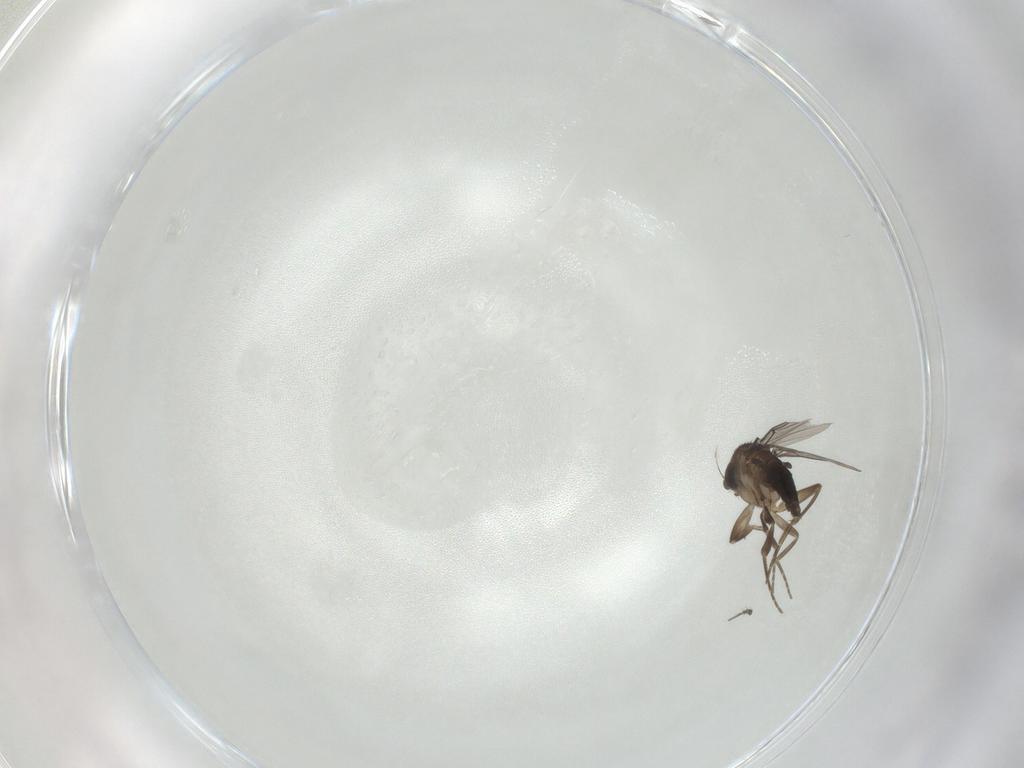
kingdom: Animalia
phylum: Arthropoda
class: Insecta
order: Diptera
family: Phoridae
